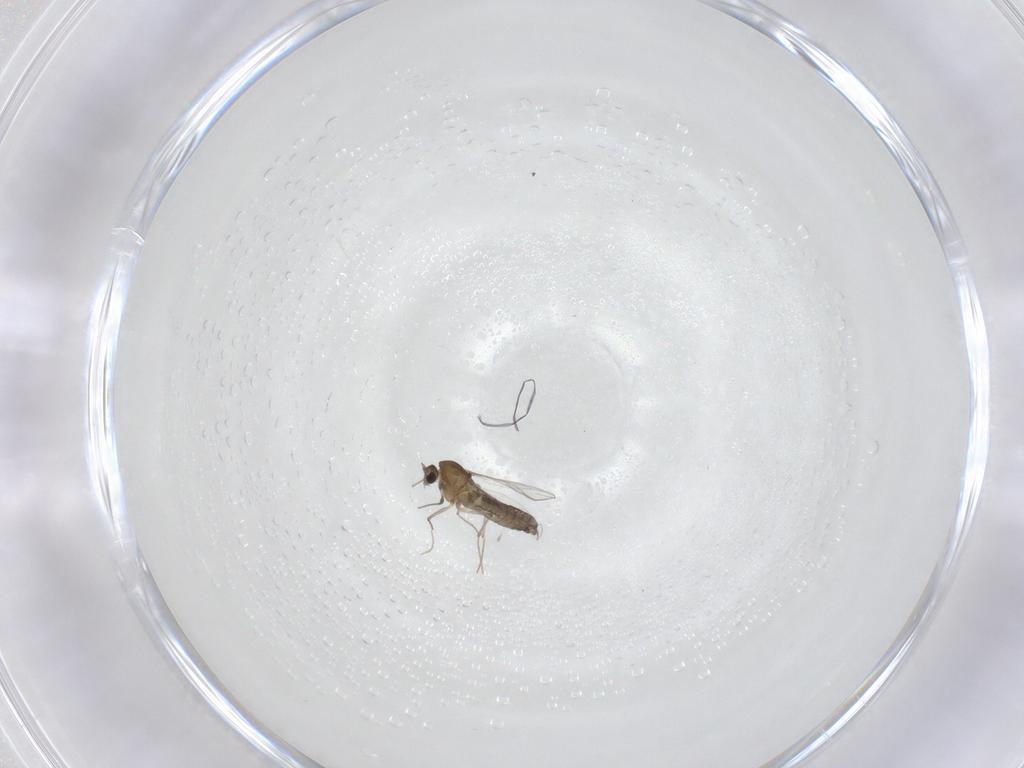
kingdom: Animalia
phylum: Arthropoda
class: Insecta
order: Diptera
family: Chironomidae
